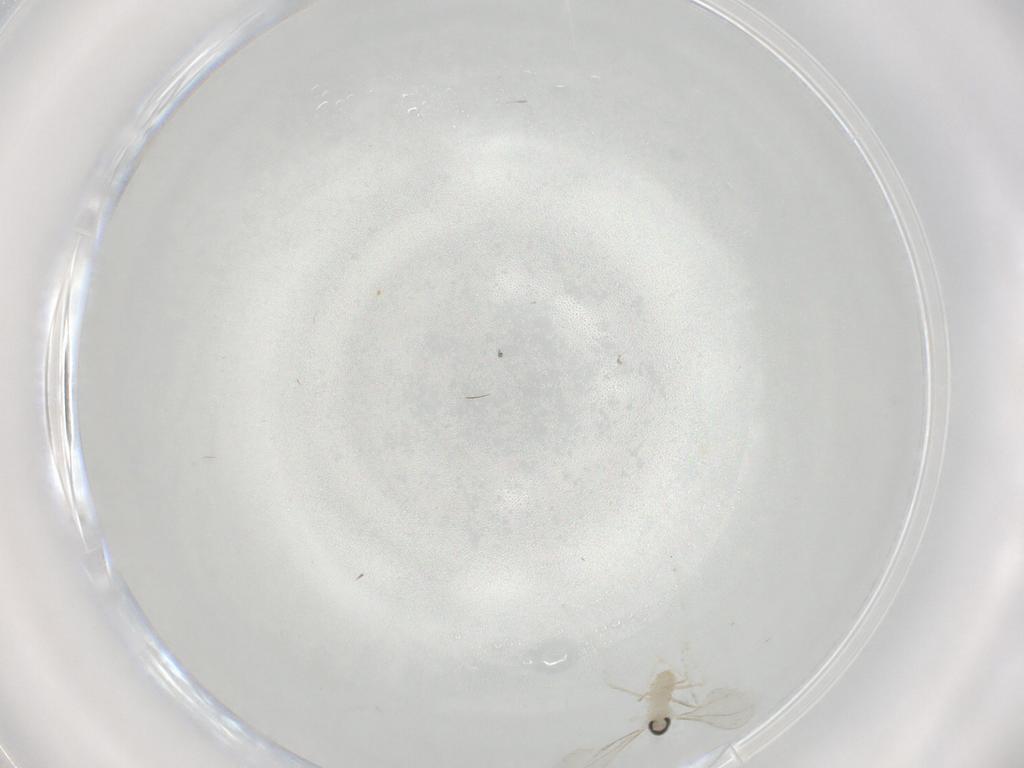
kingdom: Animalia
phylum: Arthropoda
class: Insecta
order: Diptera
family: Cecidomyiidae
